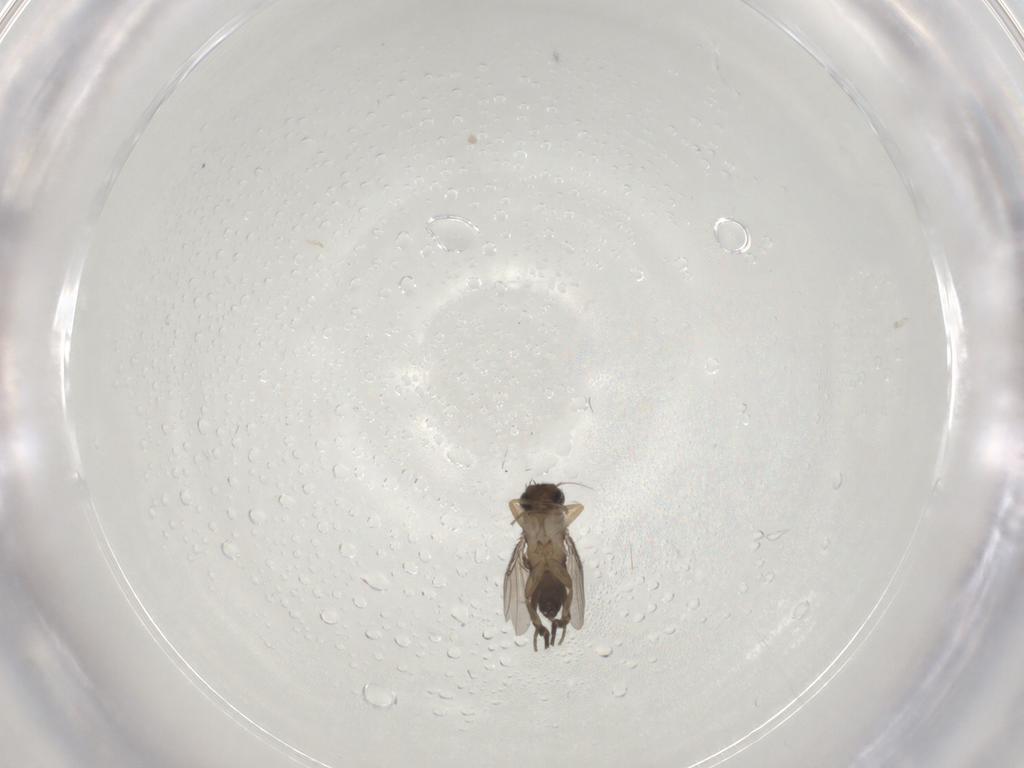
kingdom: Animalia
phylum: Arthropoda
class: Insecta
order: Diptera
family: Phoridae
